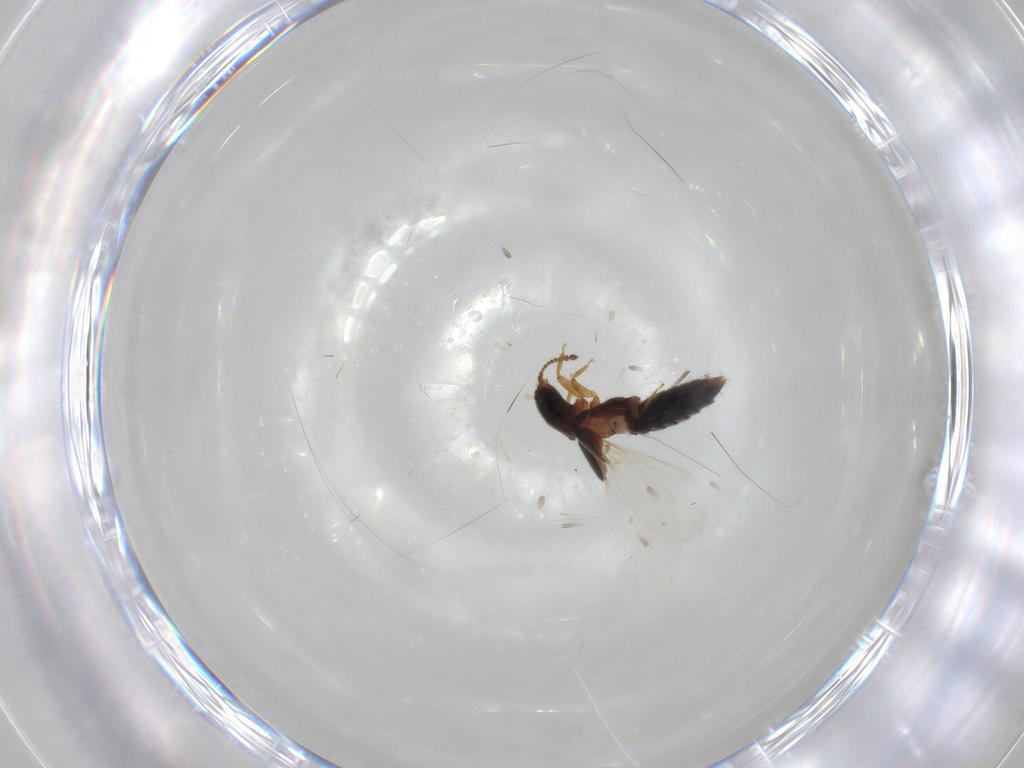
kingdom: Animalia
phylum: Arthropoda
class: Insecta
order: Coleoptera
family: Staphylinidae
